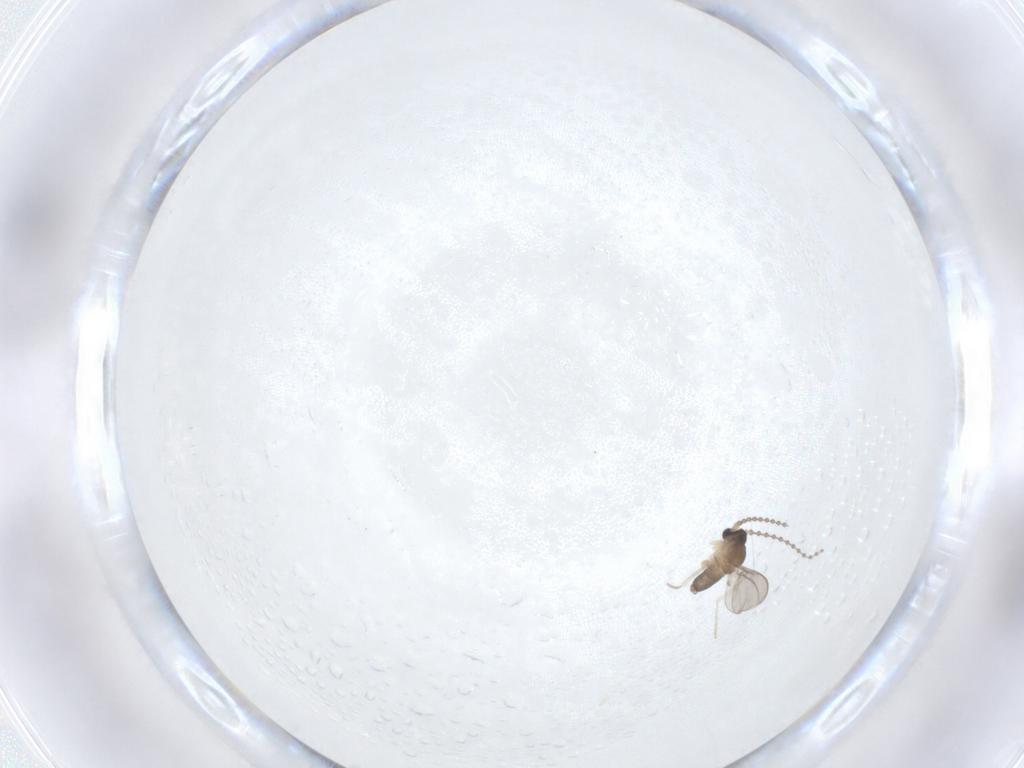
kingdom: Animalia
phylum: Arthropoda
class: Insecta
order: Diptera
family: Cecidomyiidae
